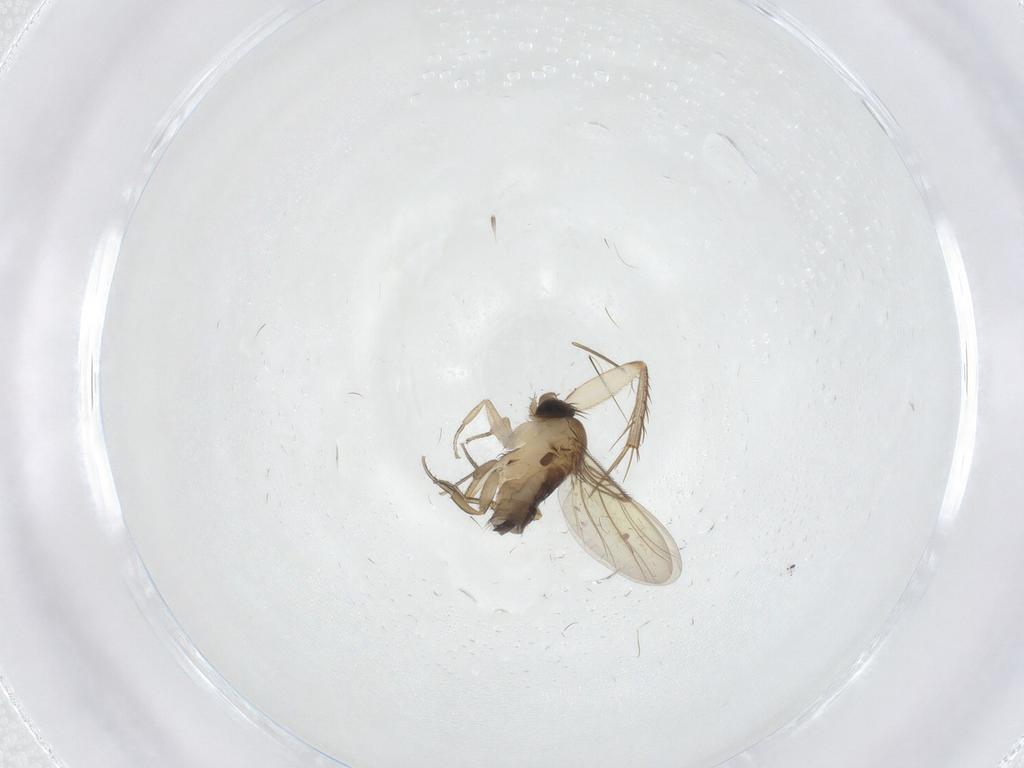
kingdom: Animalia
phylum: Arthropoda
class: Insecta
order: Diptera
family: Phoridae
